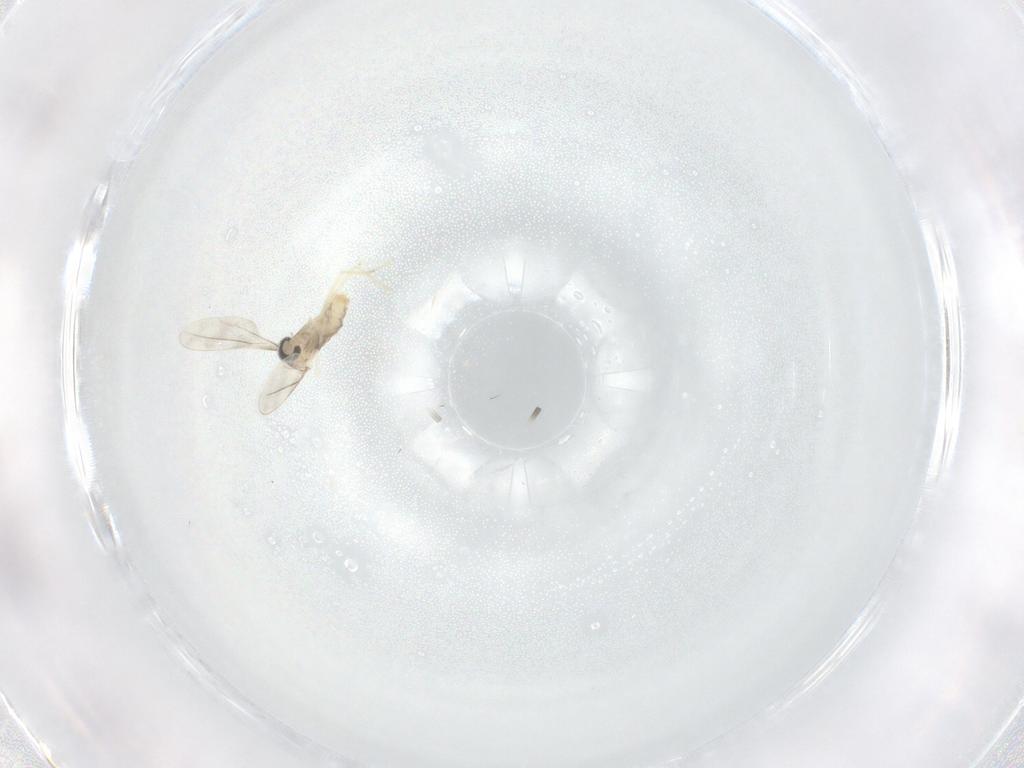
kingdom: Animalia
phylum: Arthropoda
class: Insecta
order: Diptera
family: Cecidomyiidae
